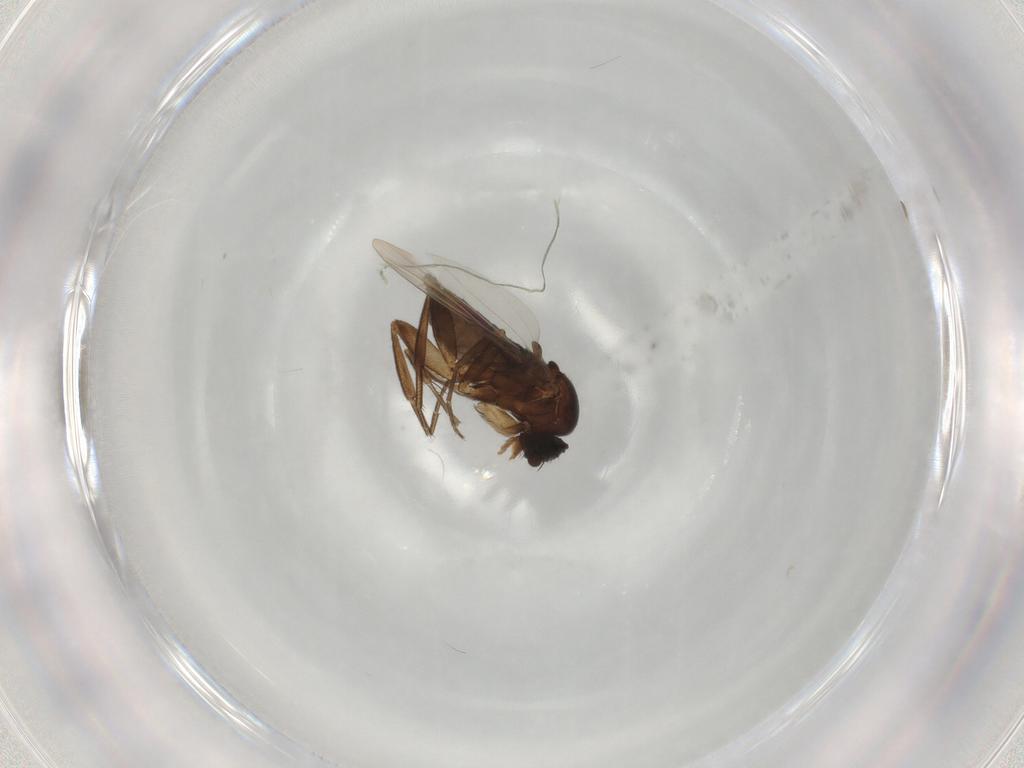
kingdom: Animalia
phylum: Arthropoda
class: Insecta
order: Diptera
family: Phoridae
